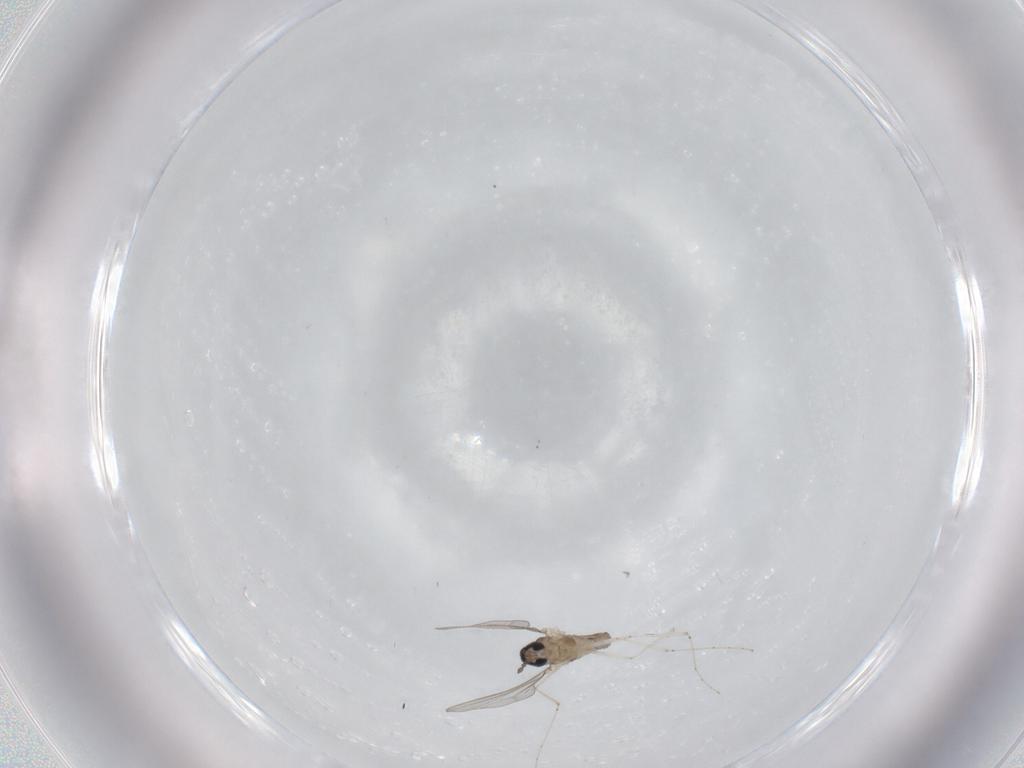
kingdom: Animalia
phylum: Arthropoda
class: Insecta
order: Diptera
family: Cecidomyiidae
